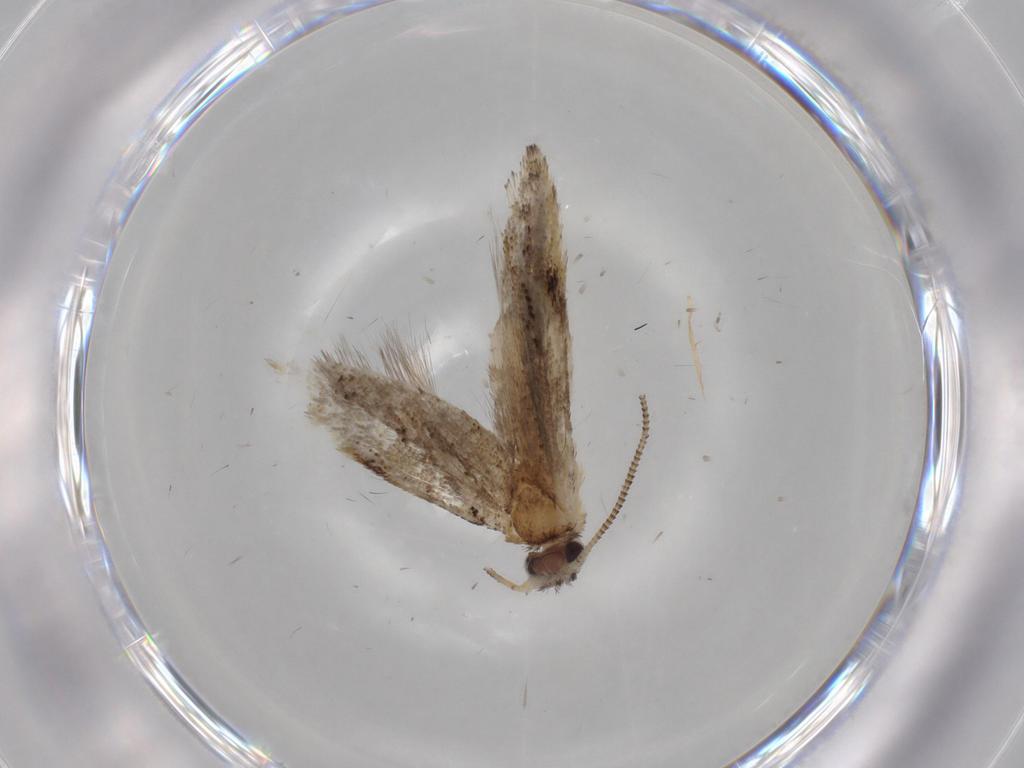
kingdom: Animalia
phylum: Arthropoda
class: Insecta
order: Lepidoptera
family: Dryadaulidae
